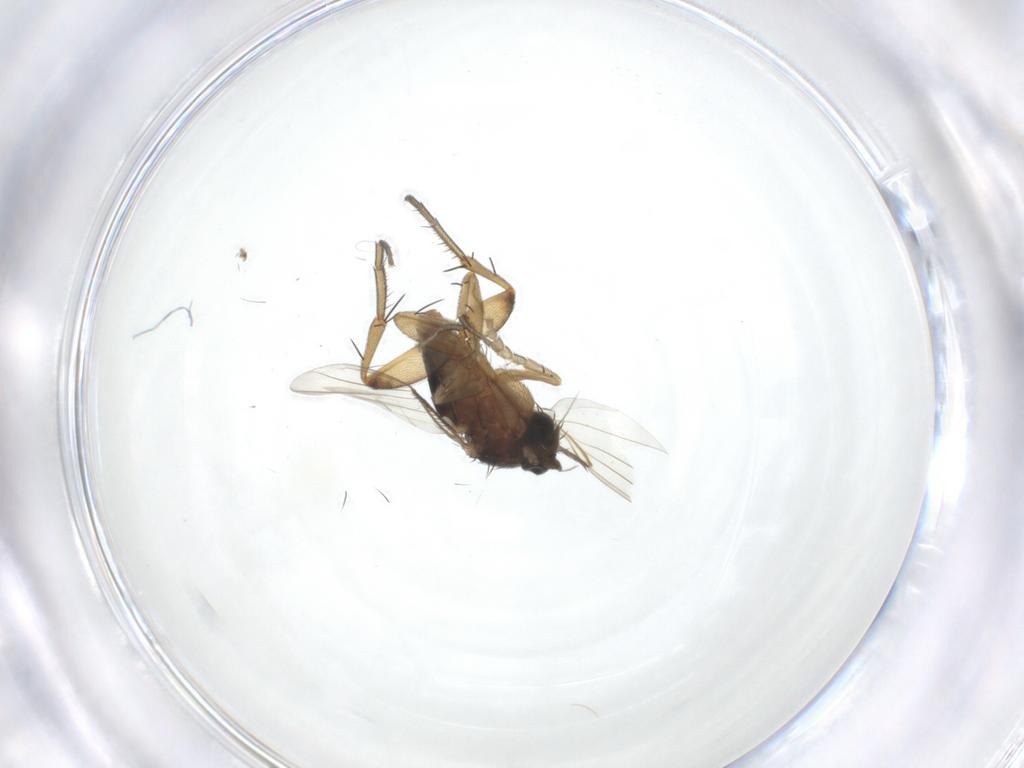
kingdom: Animalia
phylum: Arthropoda
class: Insecta
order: Diptera
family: Phoridae
